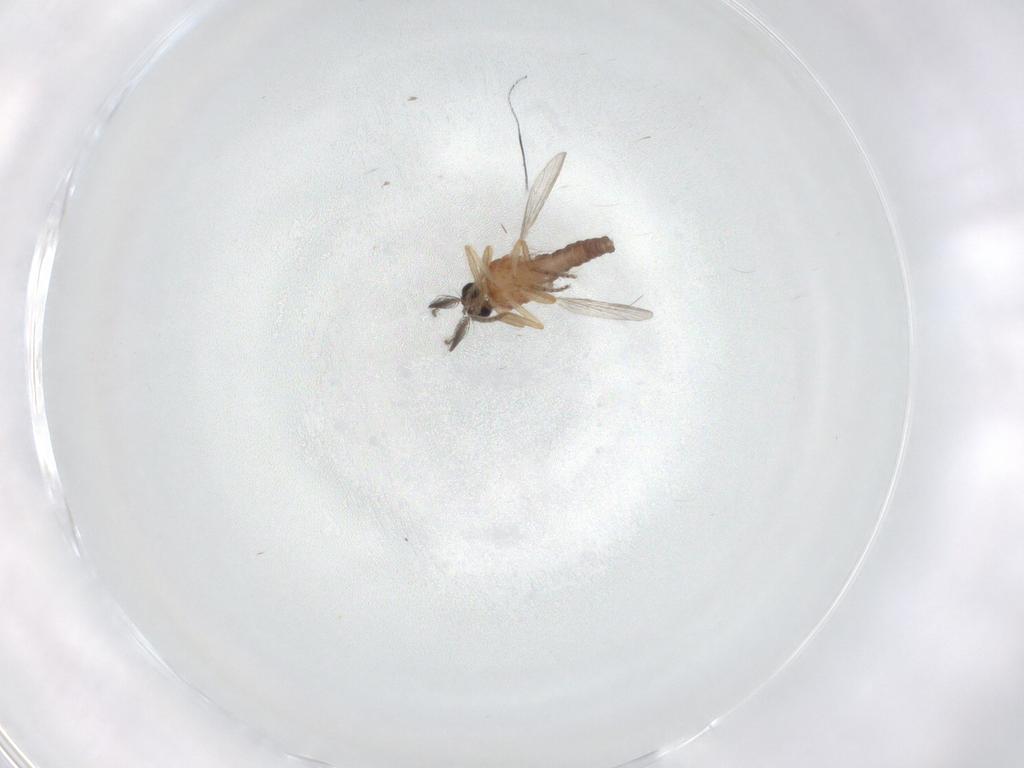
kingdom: Animalia
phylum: Arthropoda
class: Insecta
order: Diptera
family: Ceratopogonidae
